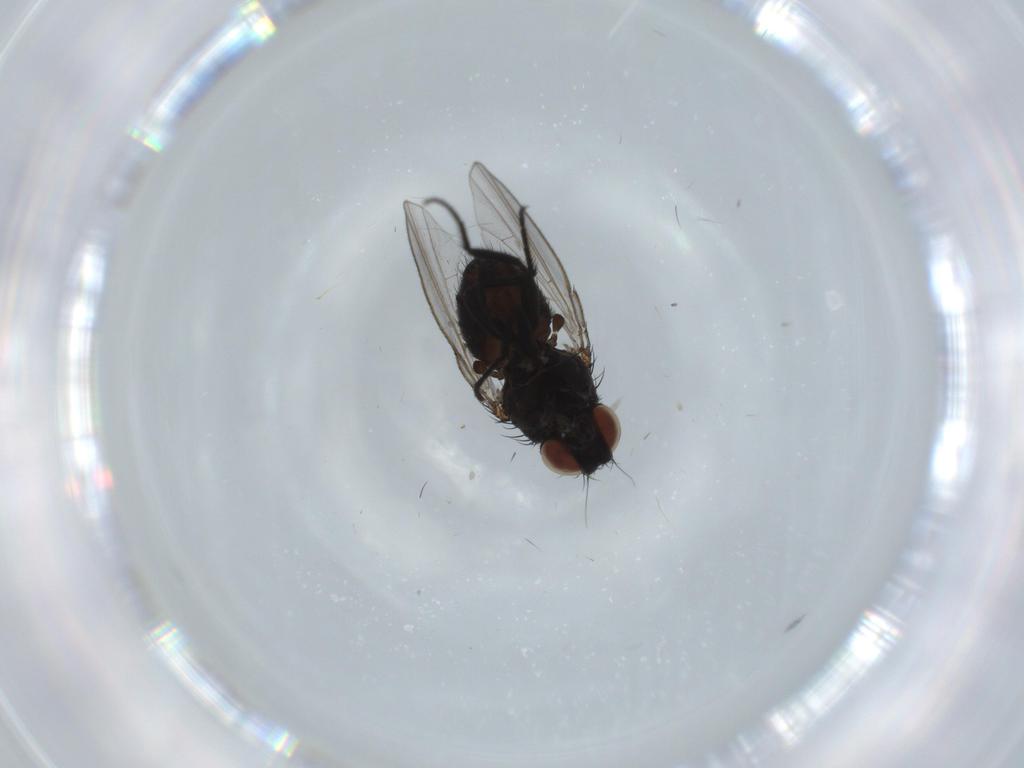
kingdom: Animalia
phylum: Arthropoda
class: Insecta
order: Diptera
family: Milichiidae
